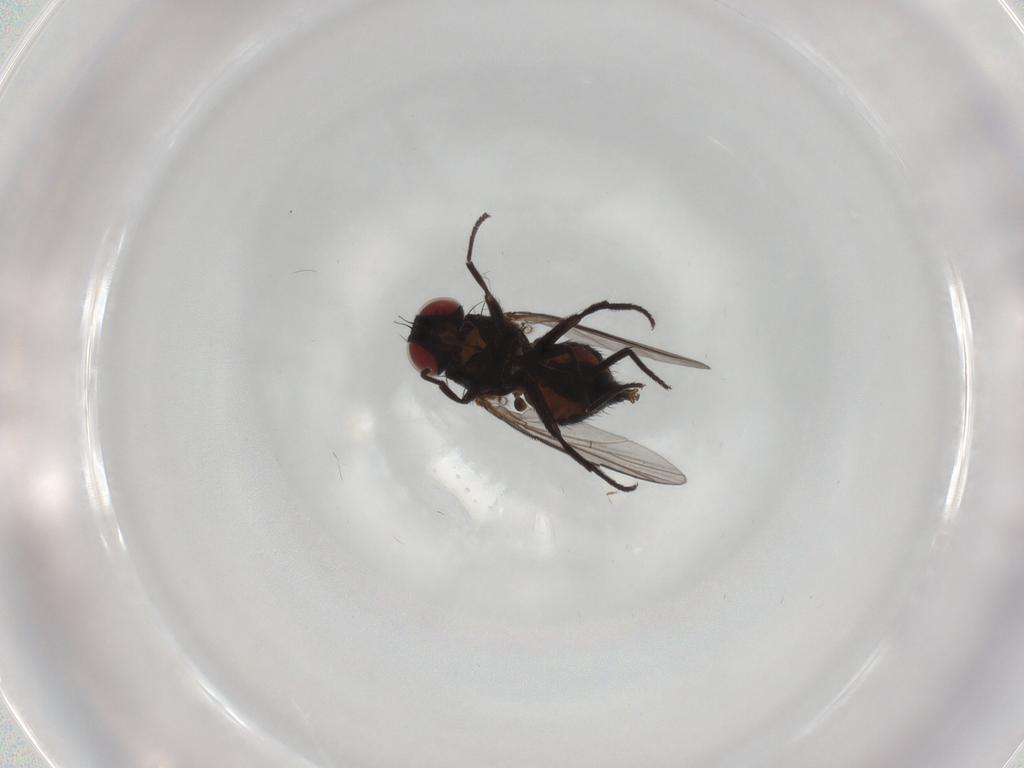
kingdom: Animalia
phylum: Arthropoda
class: Insecta
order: Diptera
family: Agromyzidae
